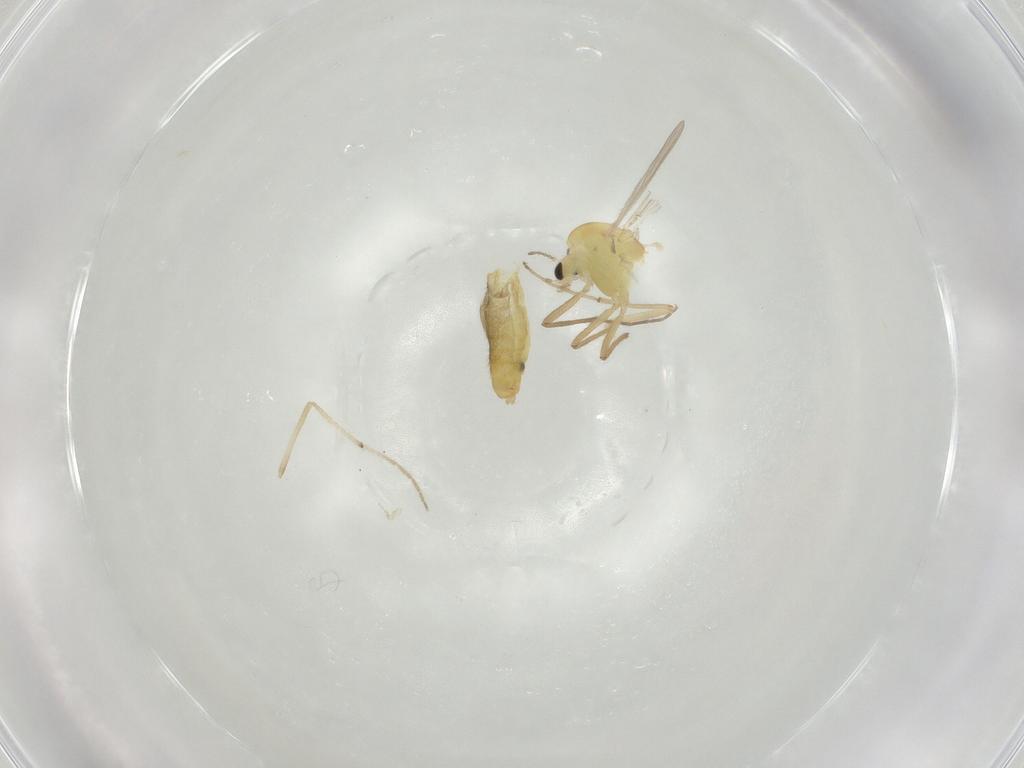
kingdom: Animalia
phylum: Arthropoda
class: Insecta
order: Diptera
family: Chironomidae
